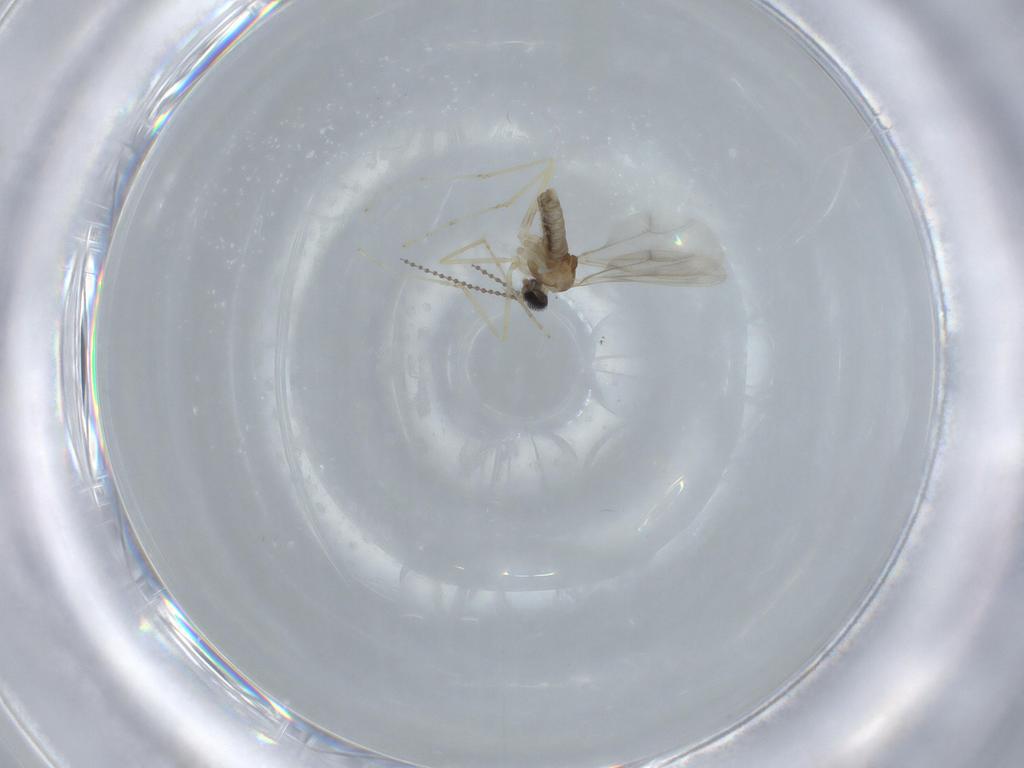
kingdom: Animalia
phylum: Arthropoda
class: Insecta
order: Diptera
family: Cecidomyiidae
